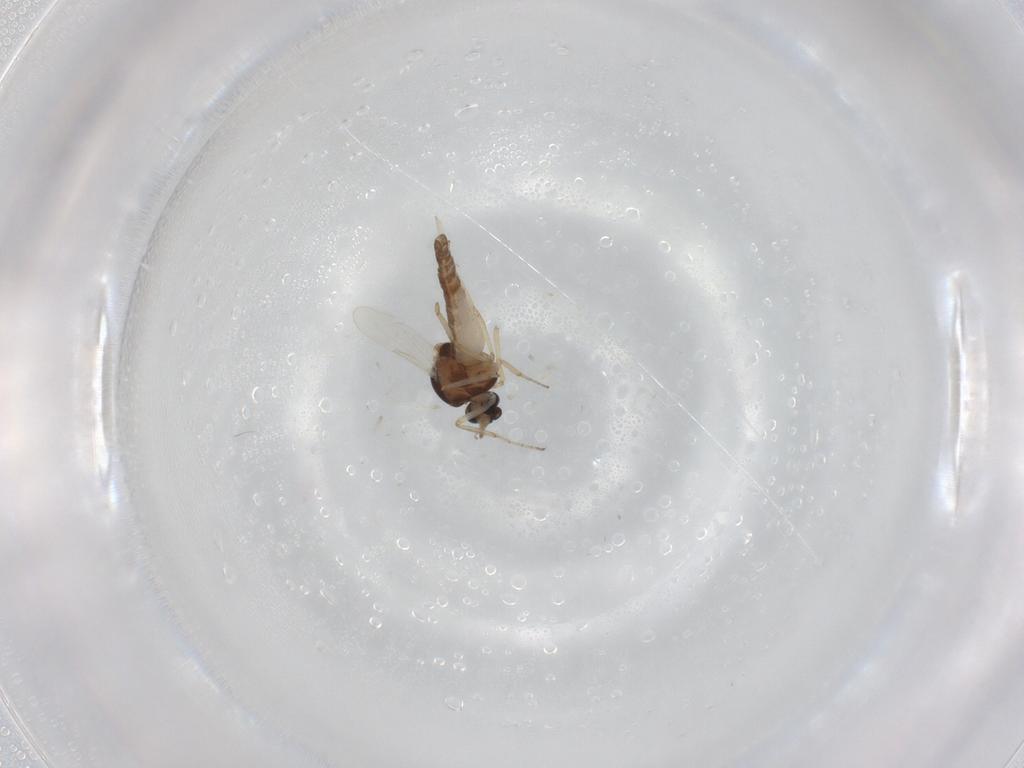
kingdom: Animalia
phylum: Arthropoda
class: Insecta
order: Diptera
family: Ceratopogonidae
